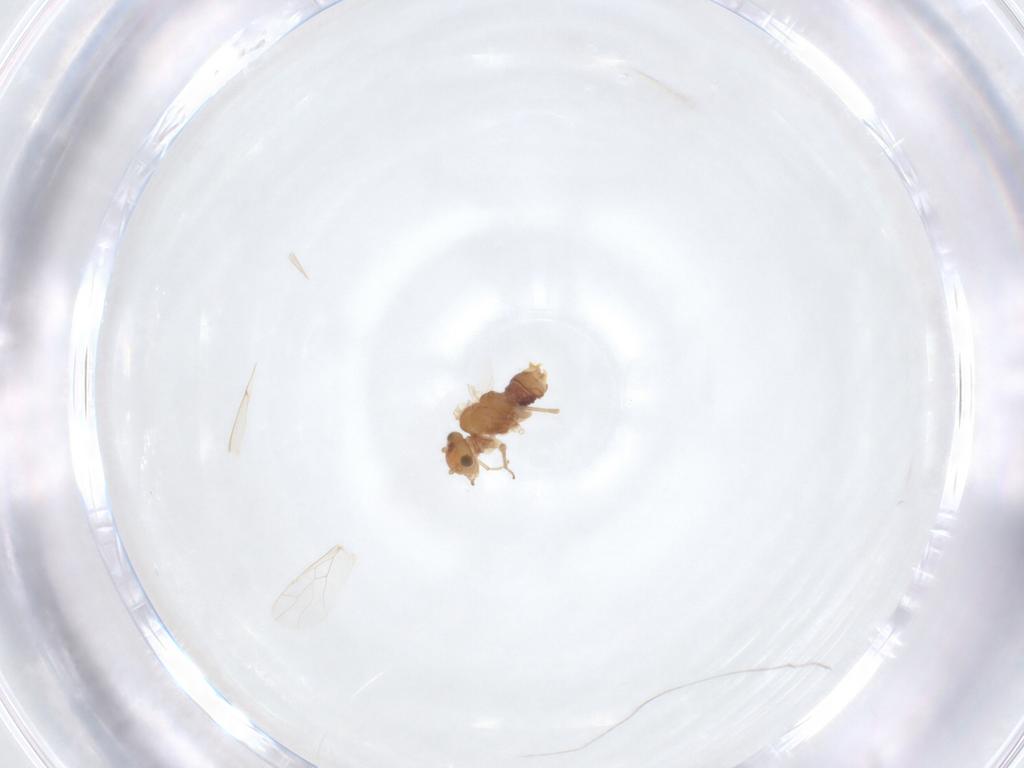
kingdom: Animalia
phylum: Arthropoda
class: Insecta
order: Psocodea
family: Lachesillidae
